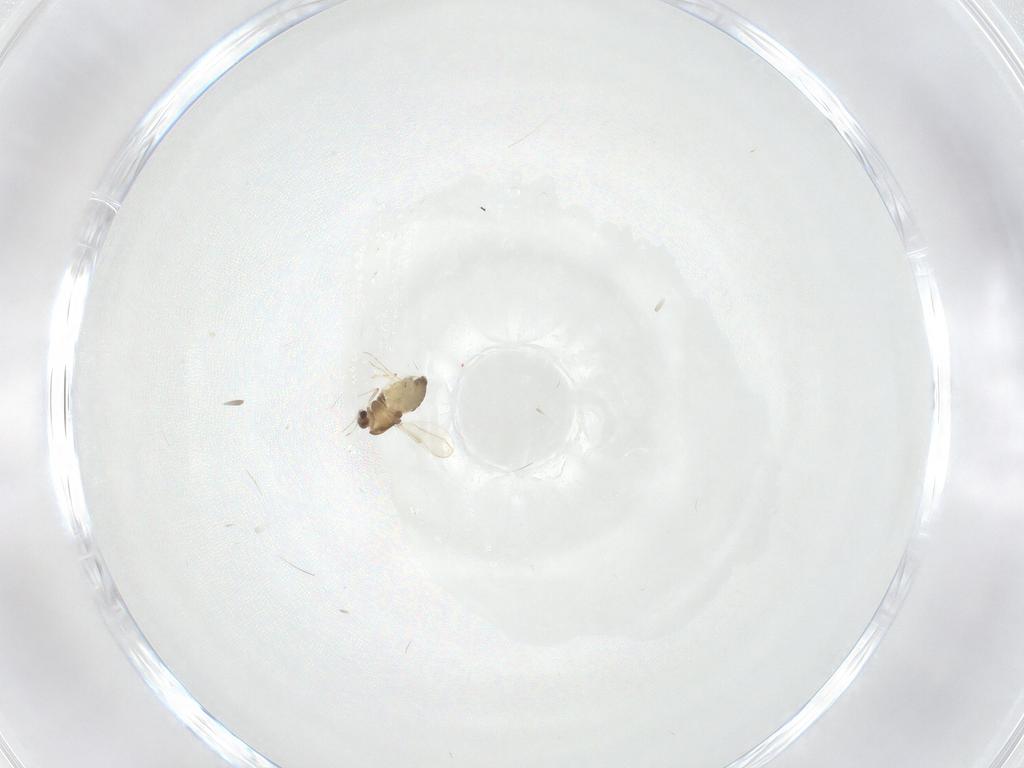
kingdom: Animalia
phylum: Arthropoda
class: Insecta
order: Diptera
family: Chironomidae
